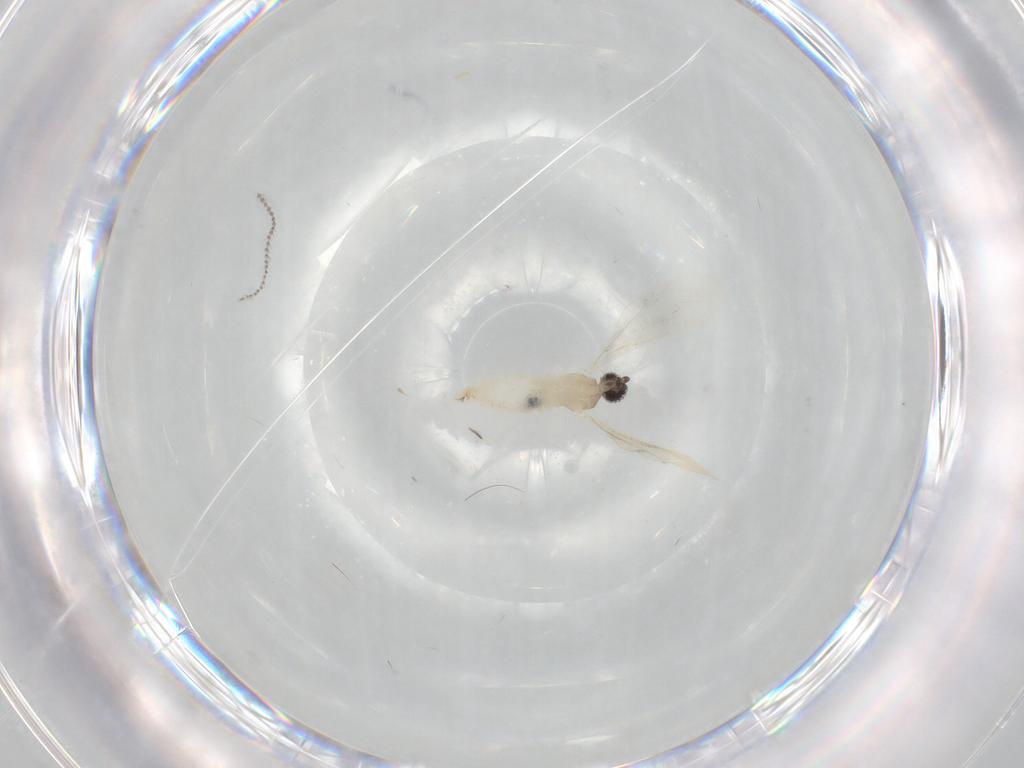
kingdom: Animalia
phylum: Arthropoda
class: Insecta
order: Diptera
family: Cecidomyiidae
